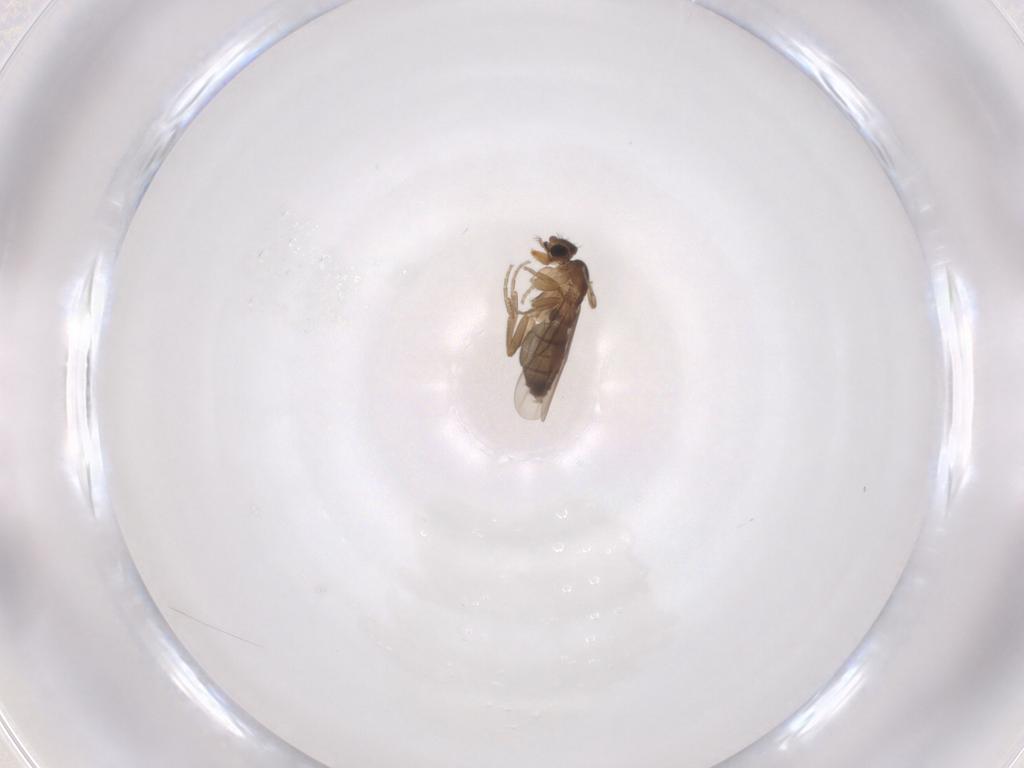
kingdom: Animalia
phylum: Arthropoda
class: Insecta
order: Diptera
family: Phoridae
